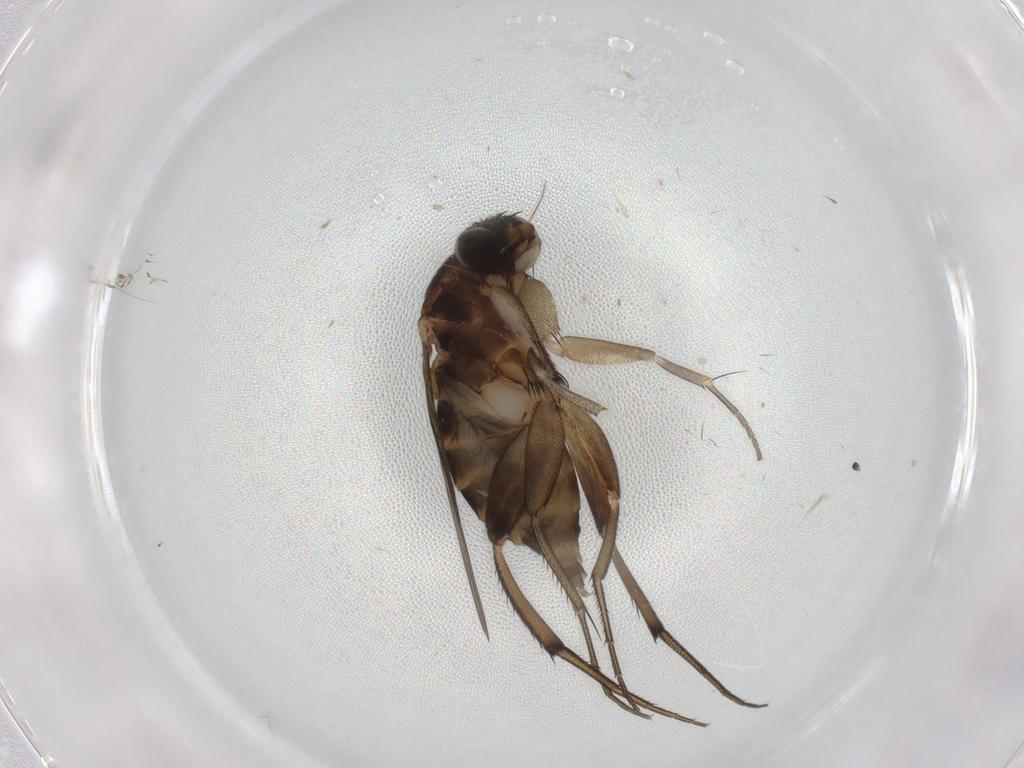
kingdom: Animalia
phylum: Arthropoda
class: Insecta
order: Diptera
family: Phoridae
